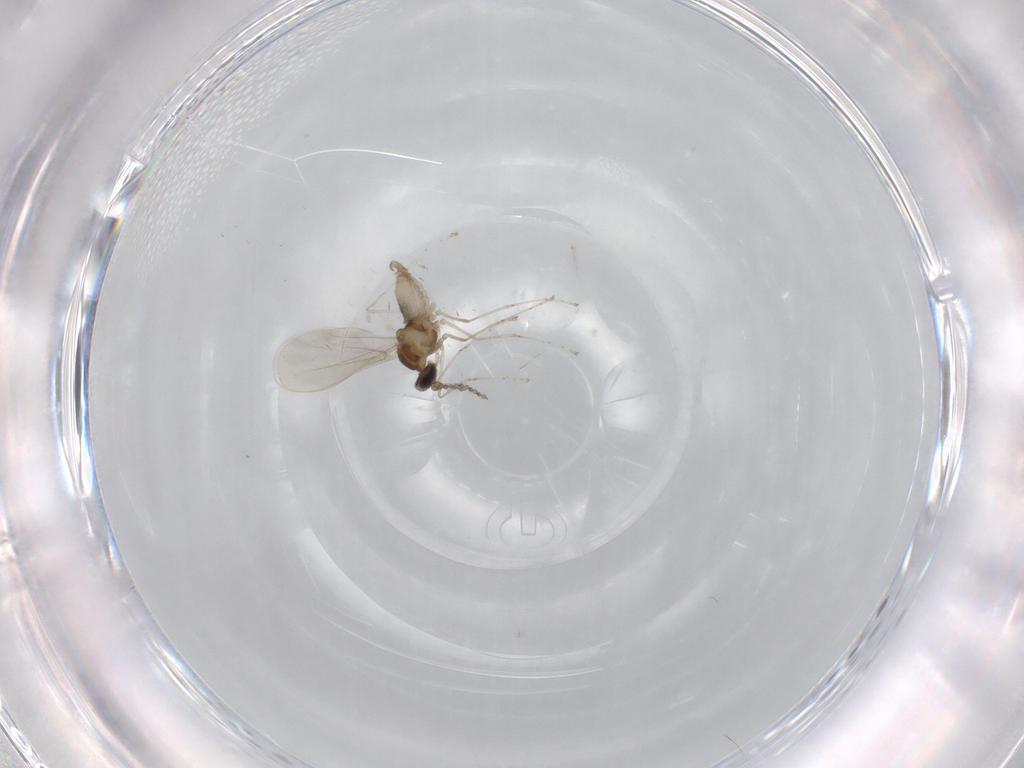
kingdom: Animalia
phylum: Arthropoda
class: Insecta
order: Diptera
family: Cecidomyiidae
